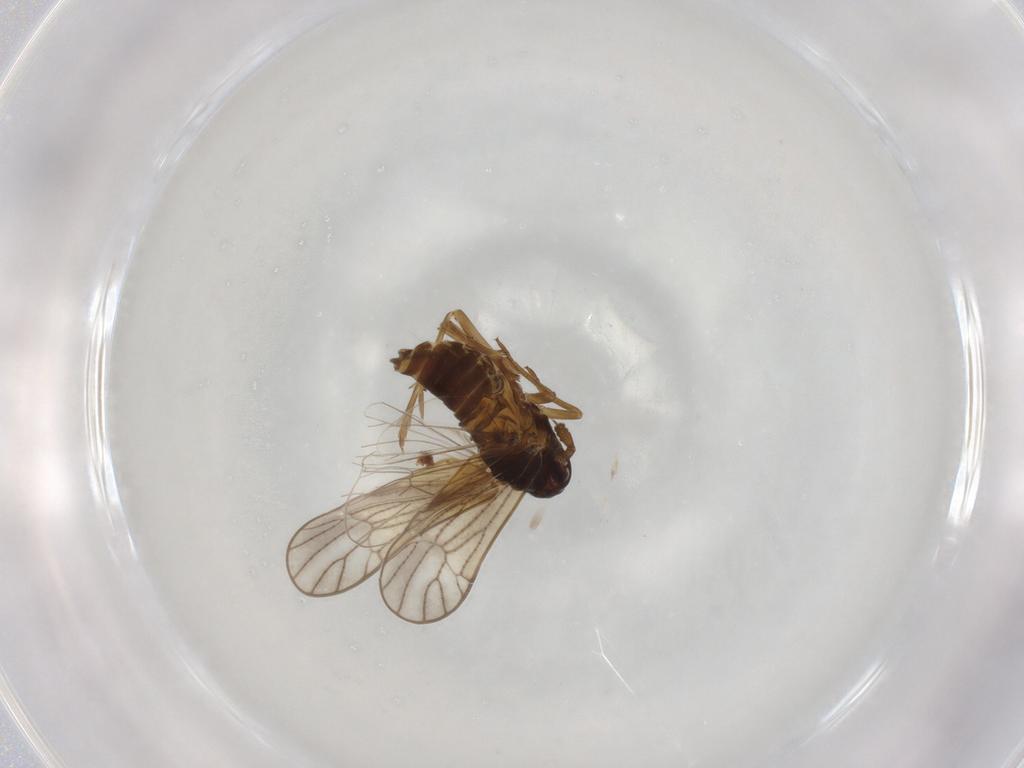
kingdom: Animalia
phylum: Arthropoda
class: Insecta
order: Hemiptera
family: Delphacidae
